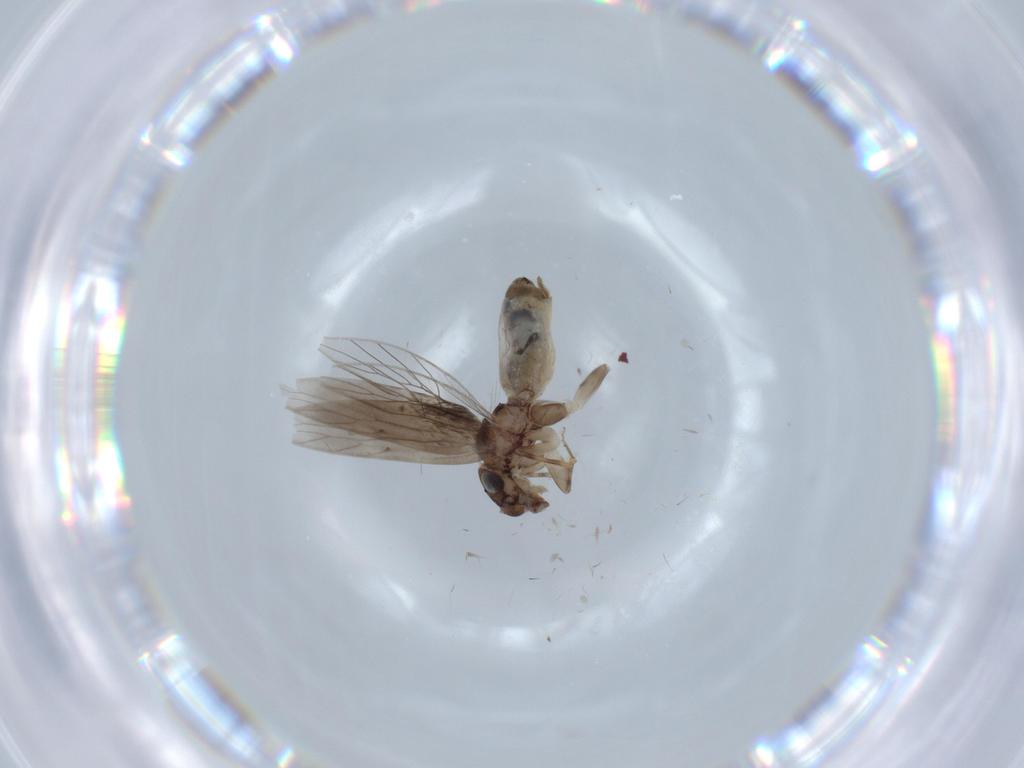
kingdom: Animalia
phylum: Arthropoda
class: Insecta
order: Psocodea
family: Lepidopsocidae
